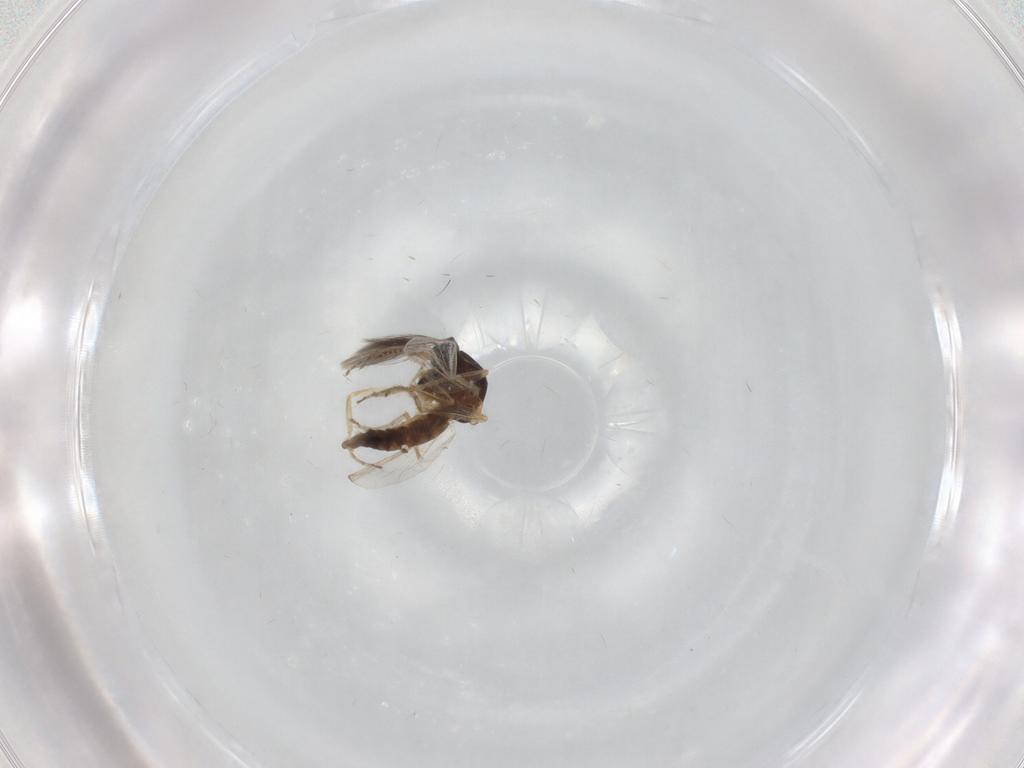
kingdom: Animalia
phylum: Arthropoda
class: Insecta
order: Diptera
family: Ceratopogonidae
